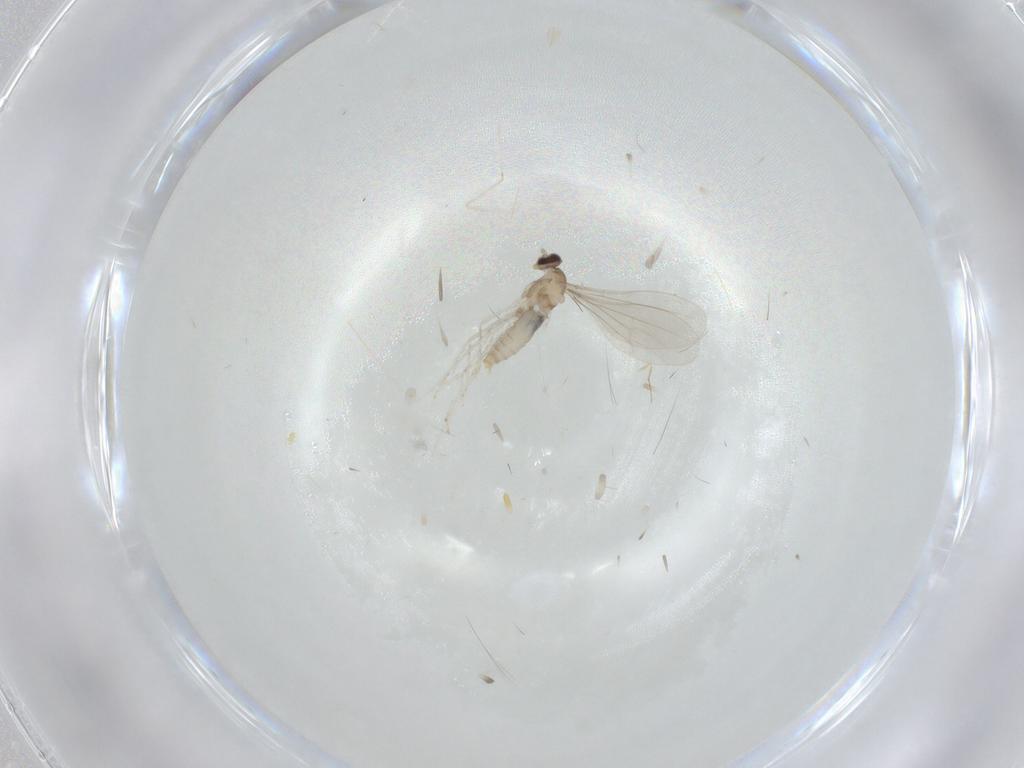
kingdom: Animalia
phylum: Arthropoda
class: Insecta
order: Diptera
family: Cecidomyiidae
